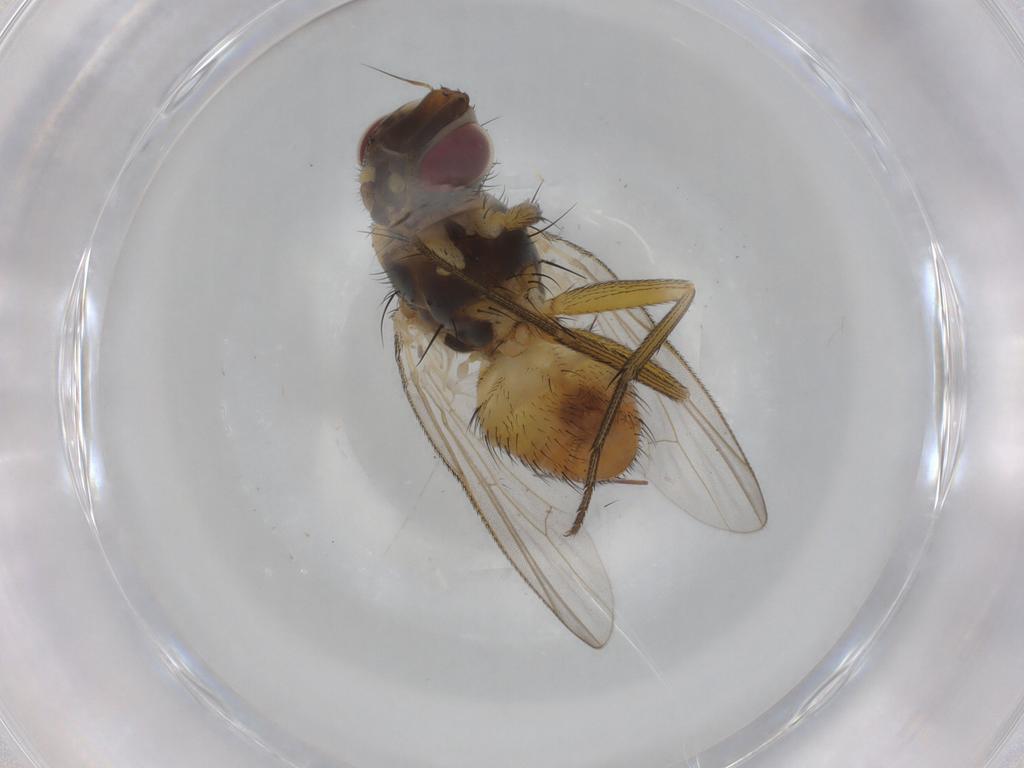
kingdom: Animalia
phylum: Arthropoda
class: Insecta
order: Diptera
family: Muscidae
